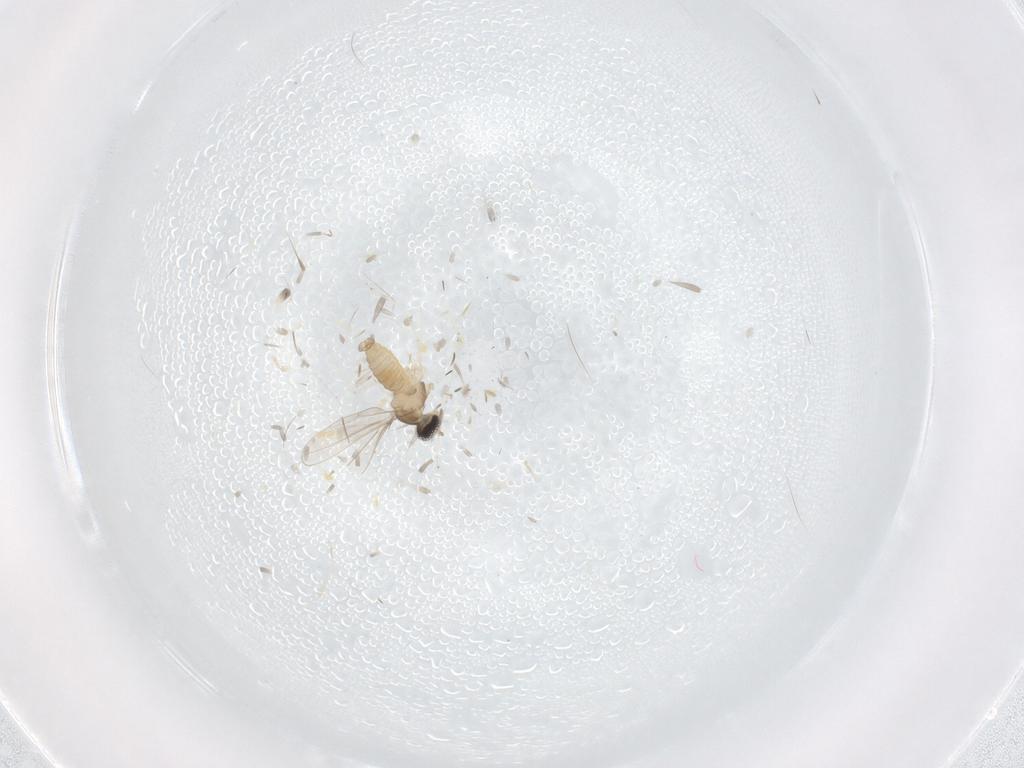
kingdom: Animalia
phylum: Arthropoda
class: Insecta
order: Diptera
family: Cecidomyiidae
